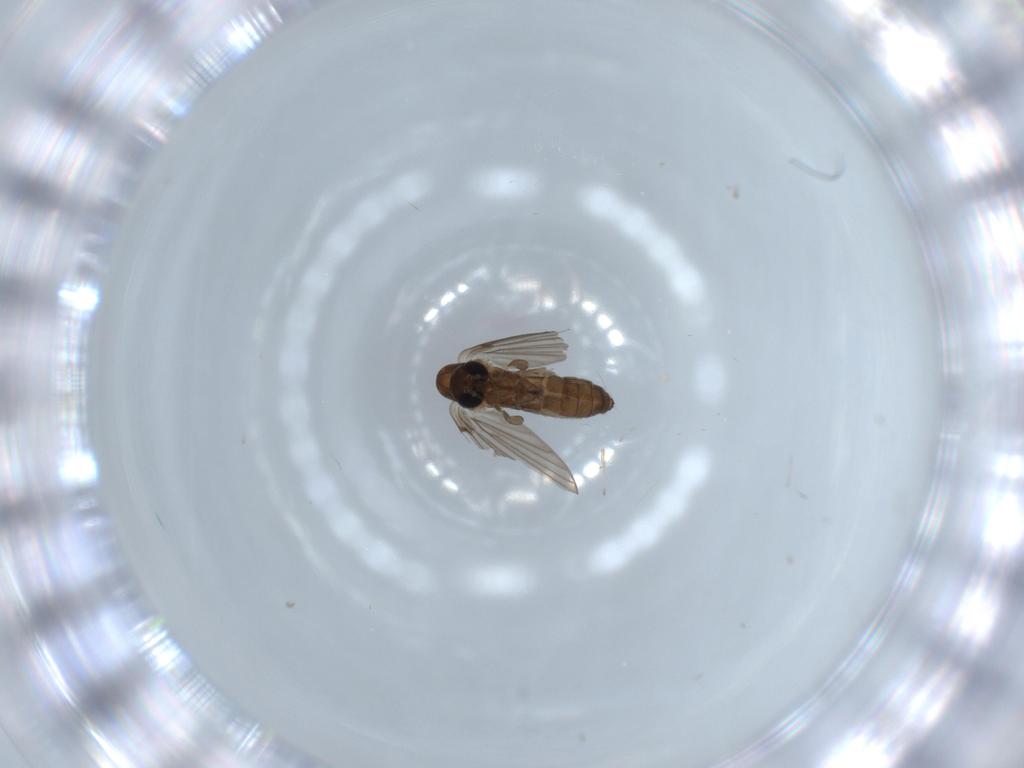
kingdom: Animalia
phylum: Arthropoda
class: Insecta
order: Diptera
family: Psychodidae
